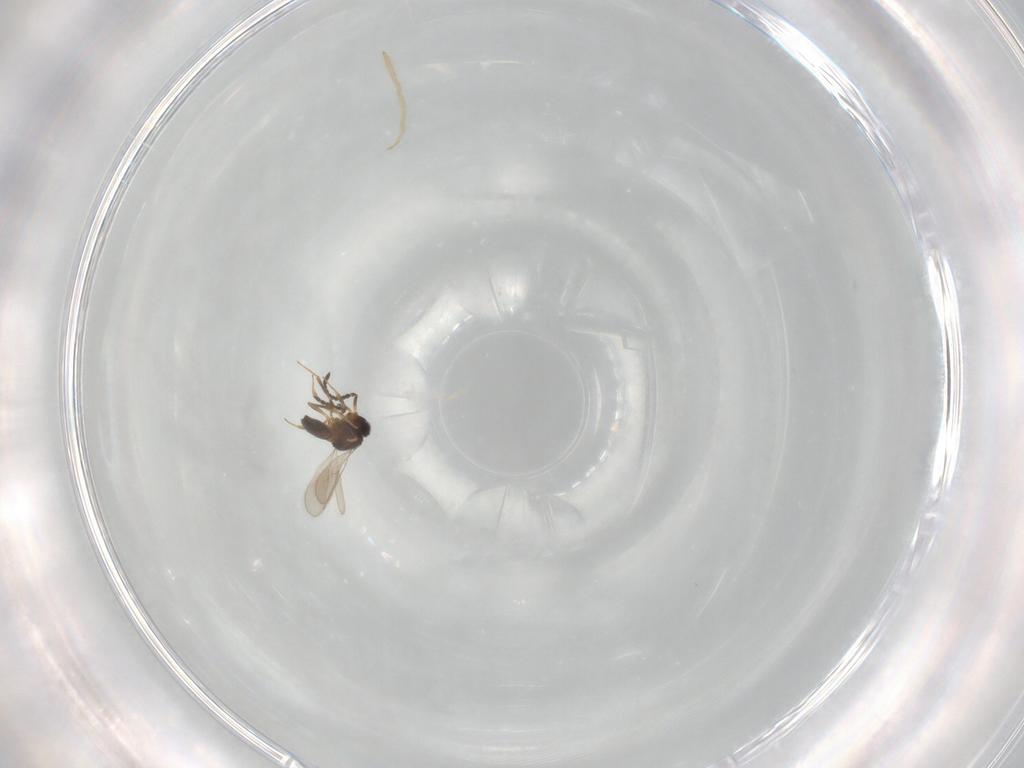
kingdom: Animalia
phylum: Arthropoda
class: Insecta
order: Hymenoptera
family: Scelionidae
